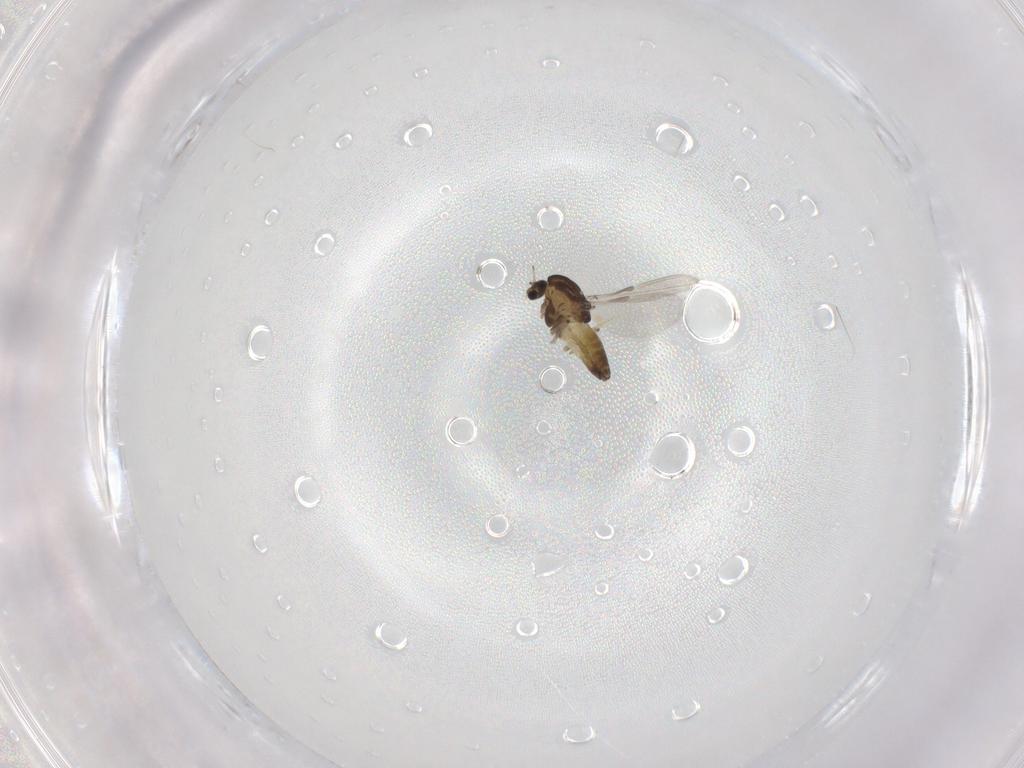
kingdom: Animalia
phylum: Arthropoda
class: Insecta
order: Diptera
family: Chironomidae
